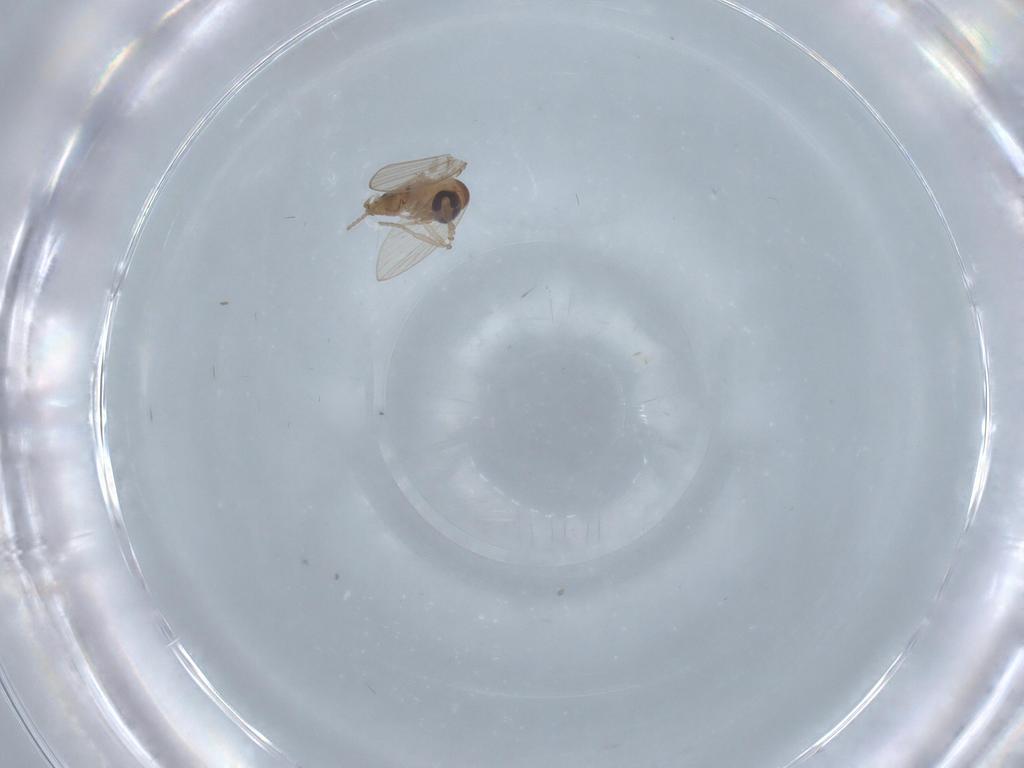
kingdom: Animalia
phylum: Arthropoda
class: Insecta
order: Diptera
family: Psychodidae
